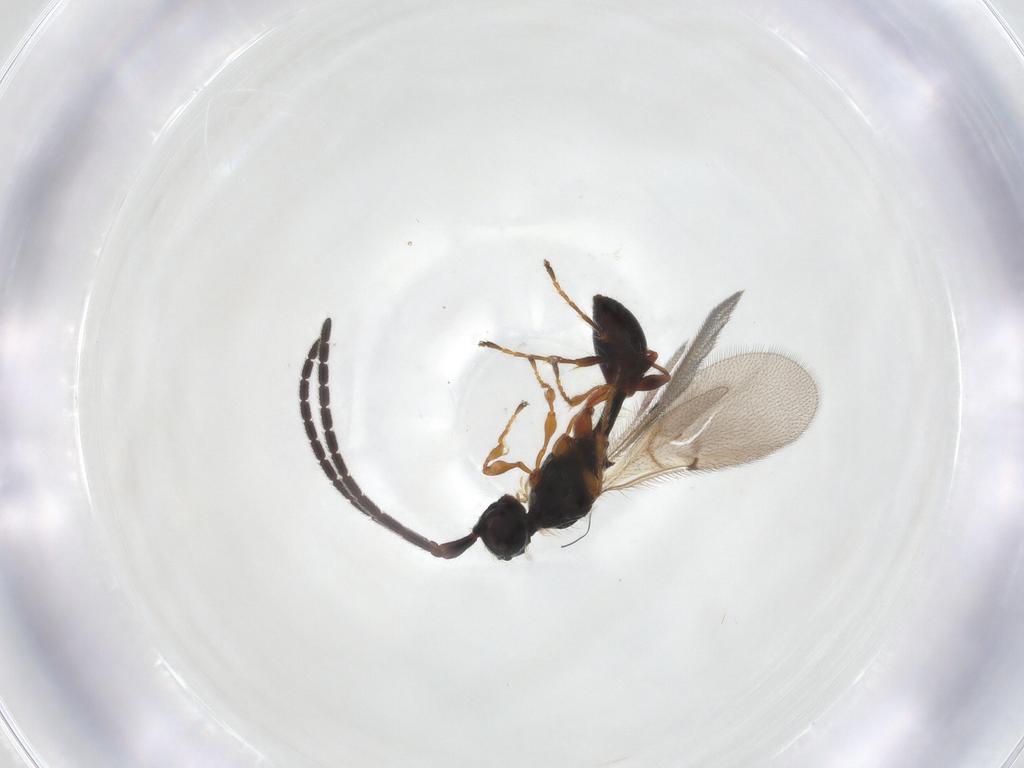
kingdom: Animalia
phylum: Arthropoda
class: Insecta
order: Hymenoptera
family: Diapriidae
